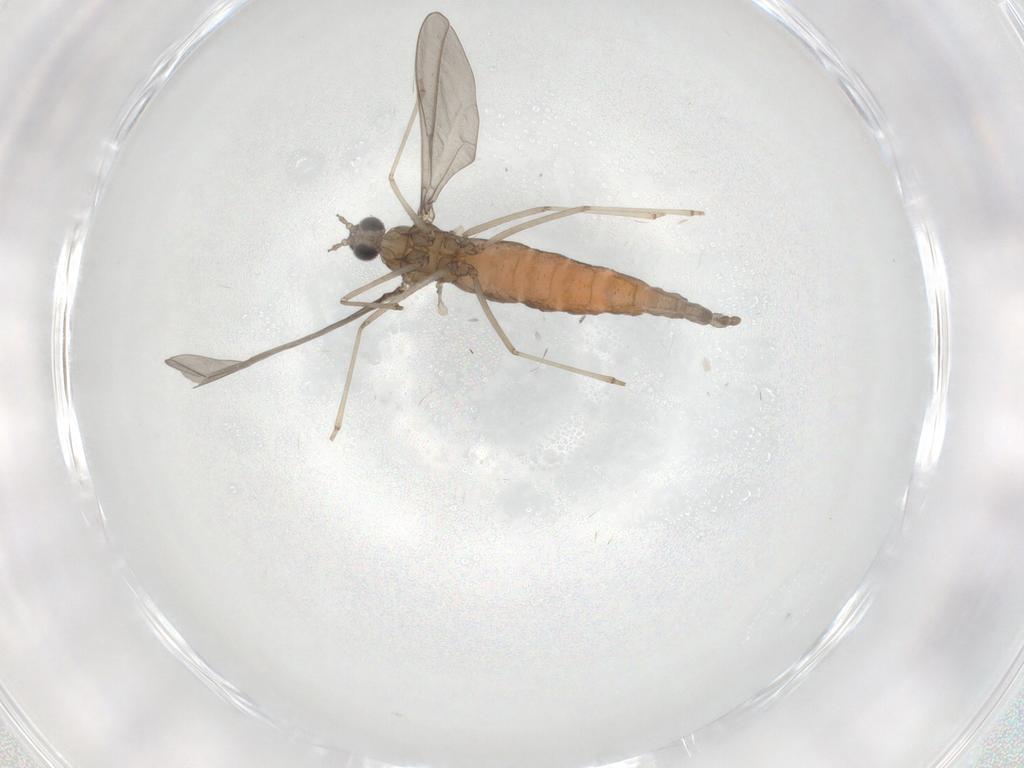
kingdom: Animalia
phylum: Arthropoda
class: Insecta
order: Diptera
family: Cecidomyiidae
